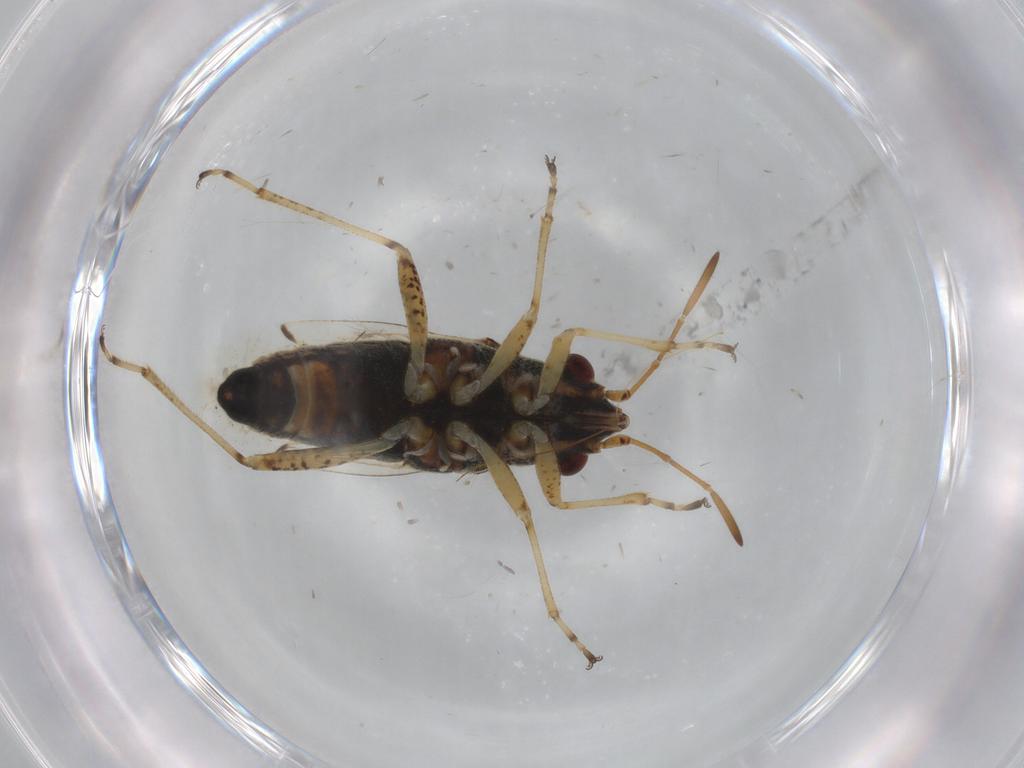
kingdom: Animalia
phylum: Arthropoda
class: Insecta
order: Hemiptera
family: Lygaeidae
